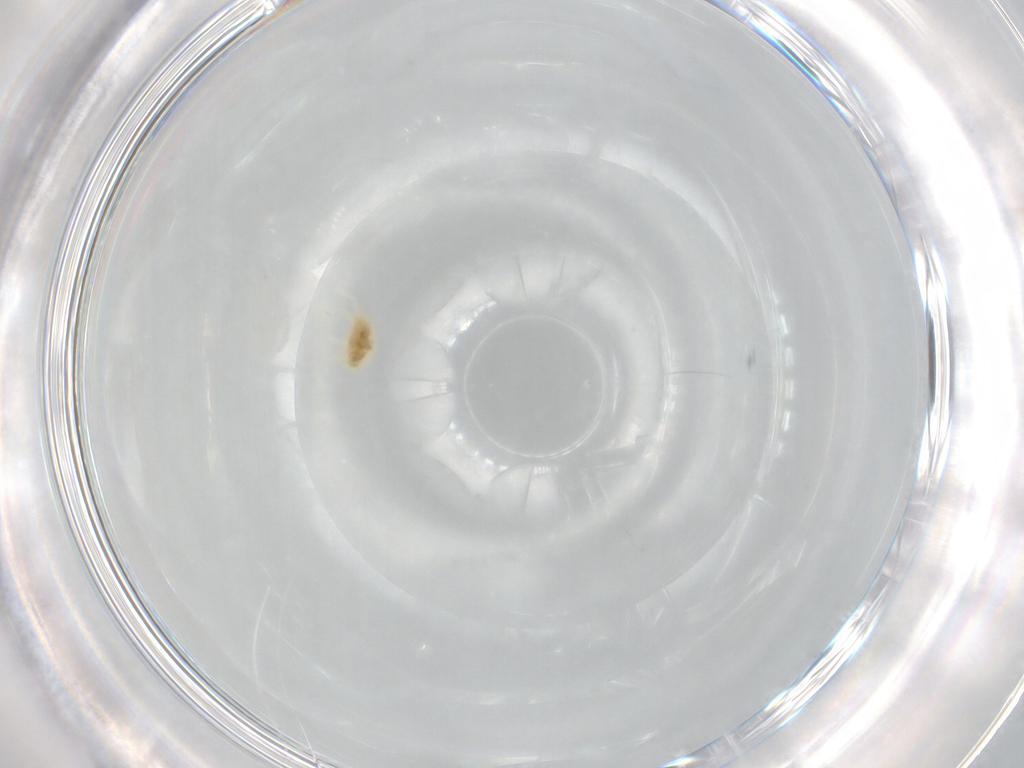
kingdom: Animalia
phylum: Arthropoda
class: Arachnida
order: Trombidiformes
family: Tetranychidae
